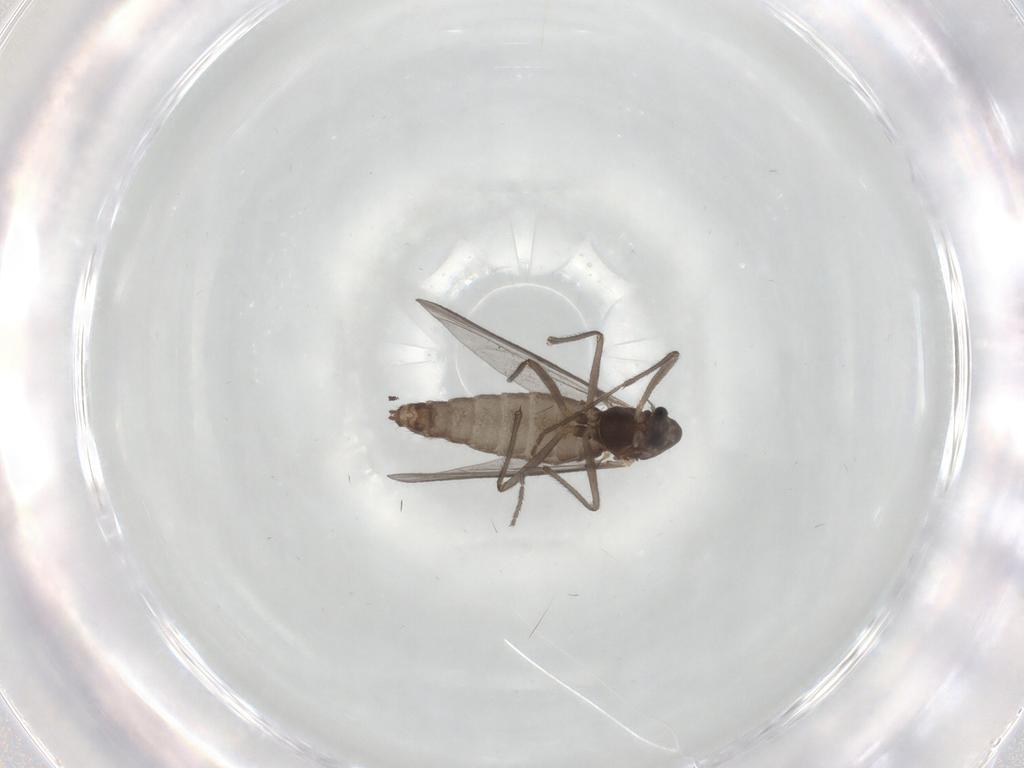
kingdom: Animalia
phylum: Arthropoda
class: Insecta
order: Diptera
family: Chironomidae
